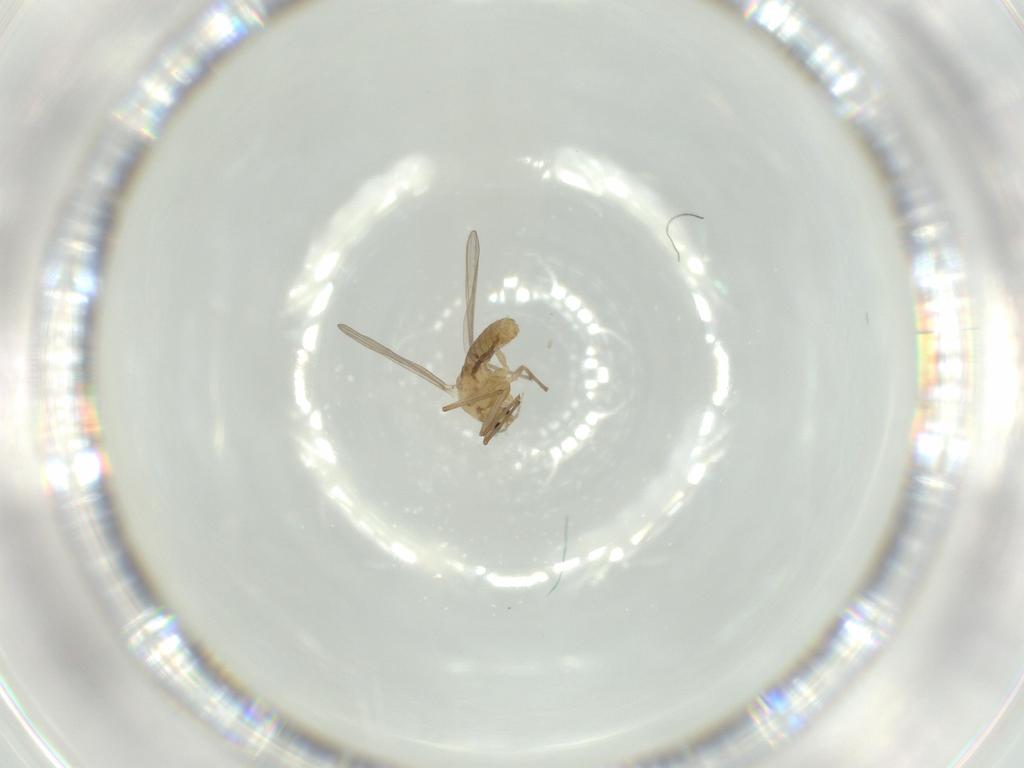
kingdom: Animalia
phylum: Arthropoda
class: Insecta
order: Diptera
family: Chironomidae
